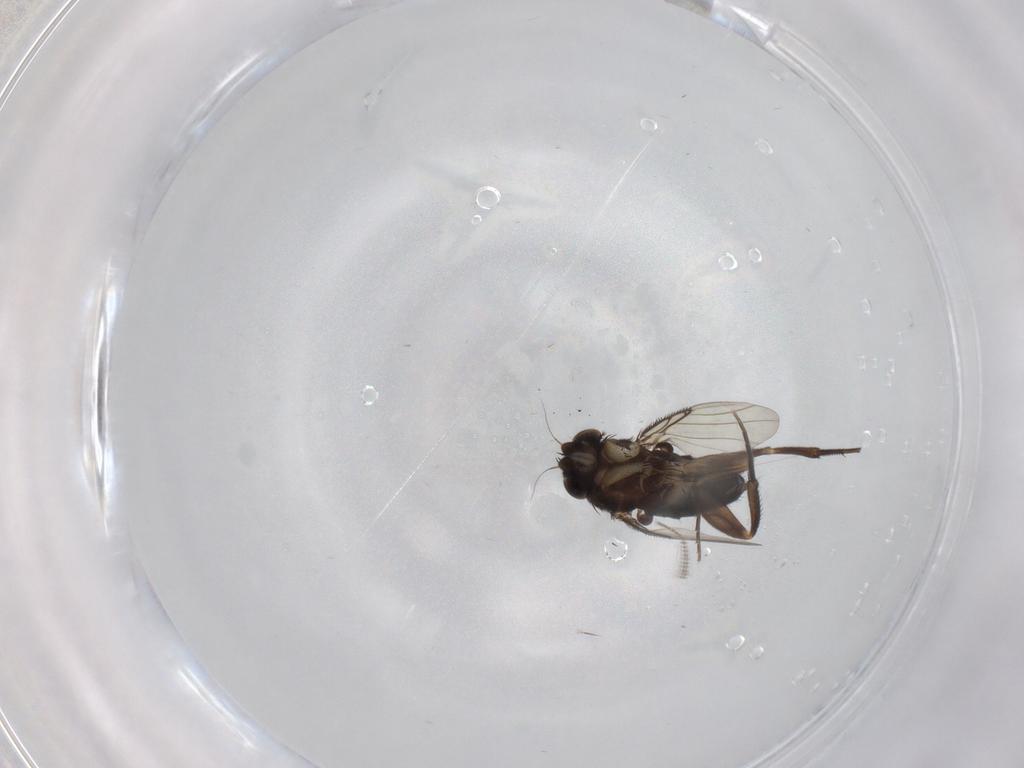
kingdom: Animalia
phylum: Arthropoda
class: Insecta
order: Diptera
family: Phoridae
